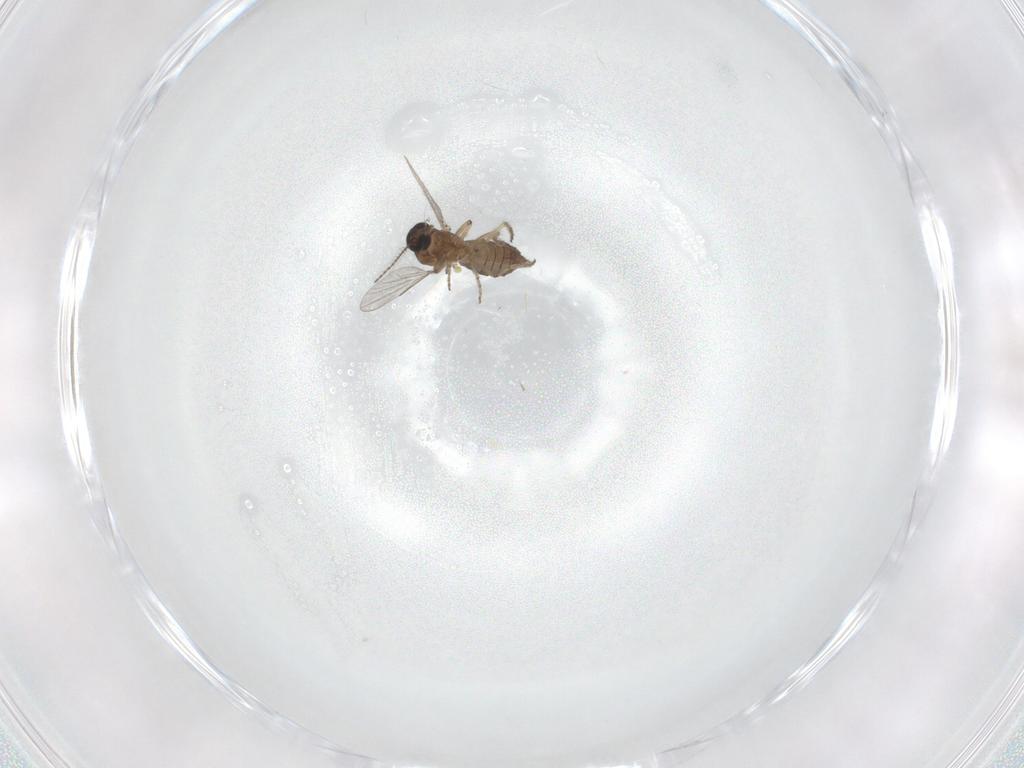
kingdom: Animalia
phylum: Arthropoda
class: Insecta
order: Diptera
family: Ceratopogonidae
